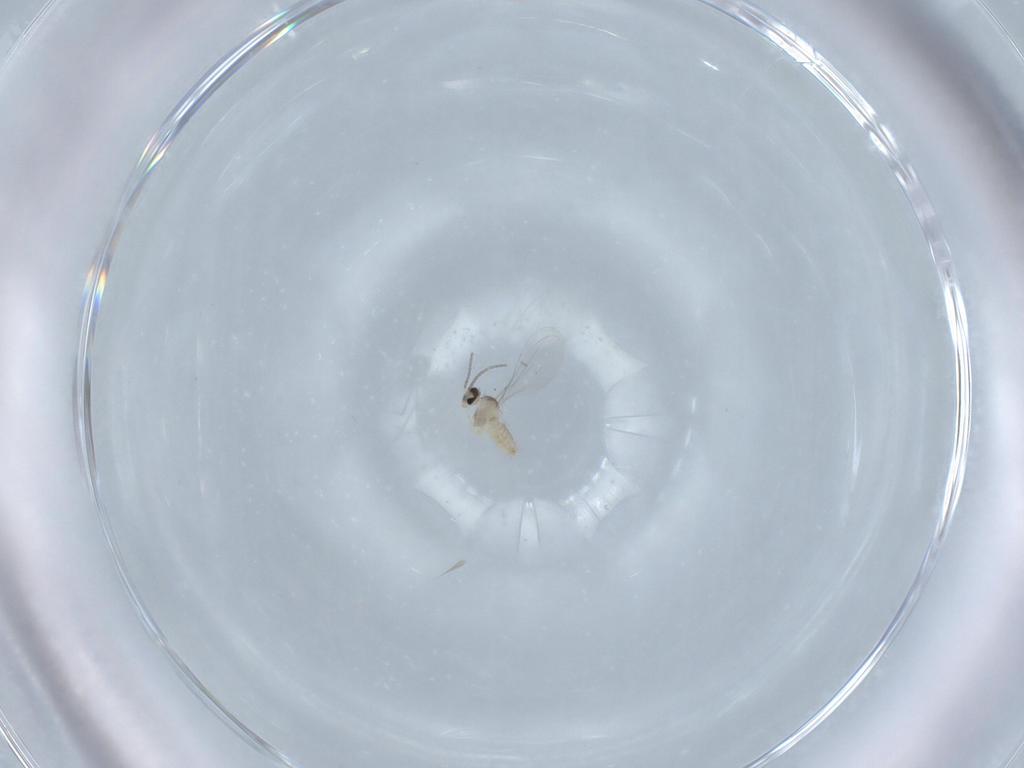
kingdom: Animalia
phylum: Arthropoda
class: Insecta
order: Diptera
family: Cecidomyiidae
